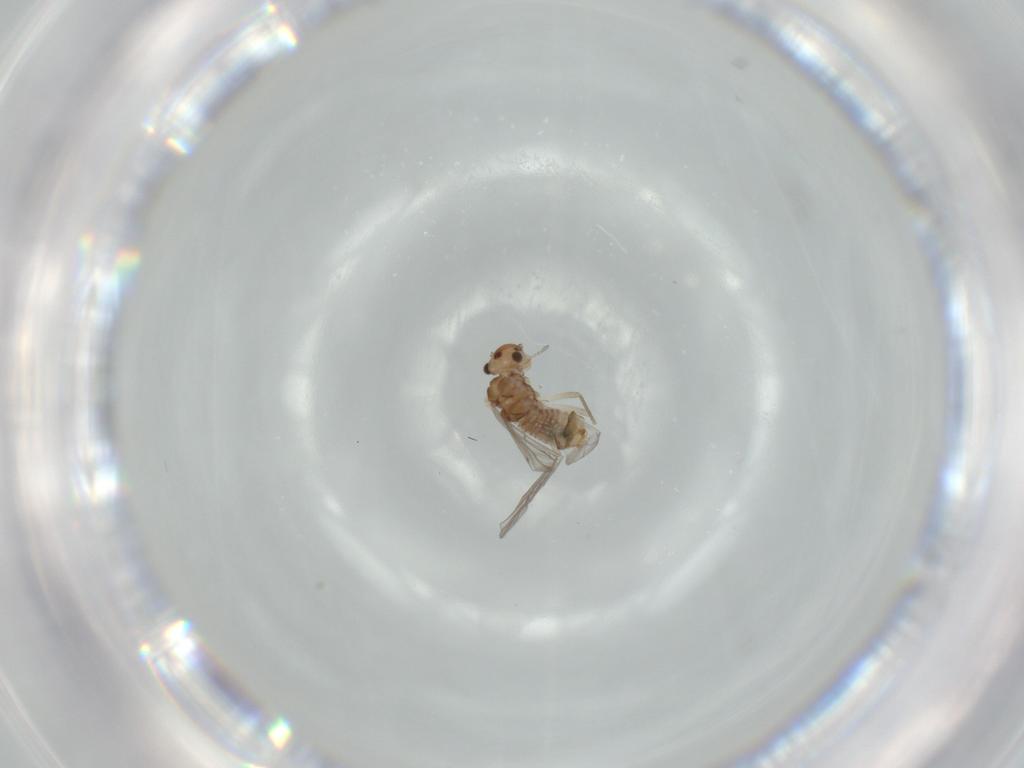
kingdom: Animalia
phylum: Arthropoda
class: Insecta
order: Psocodea
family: Lachesillidae
